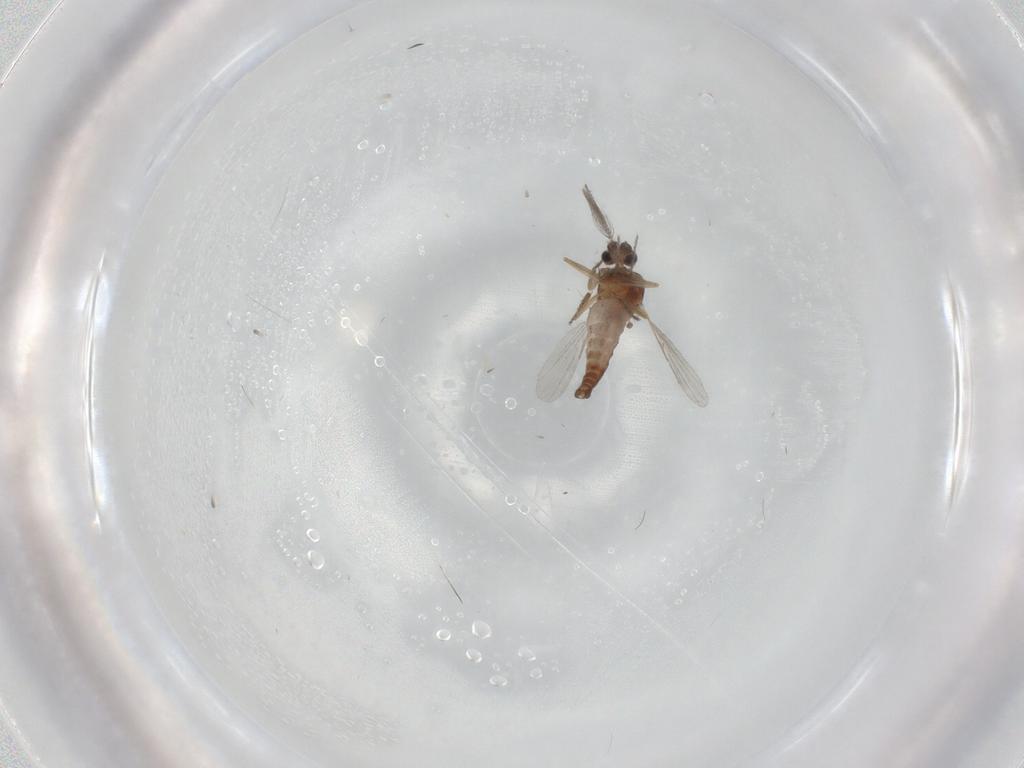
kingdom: Animalia
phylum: Arthropoda
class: Insecta
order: Diptera
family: Ceratopogonidae
